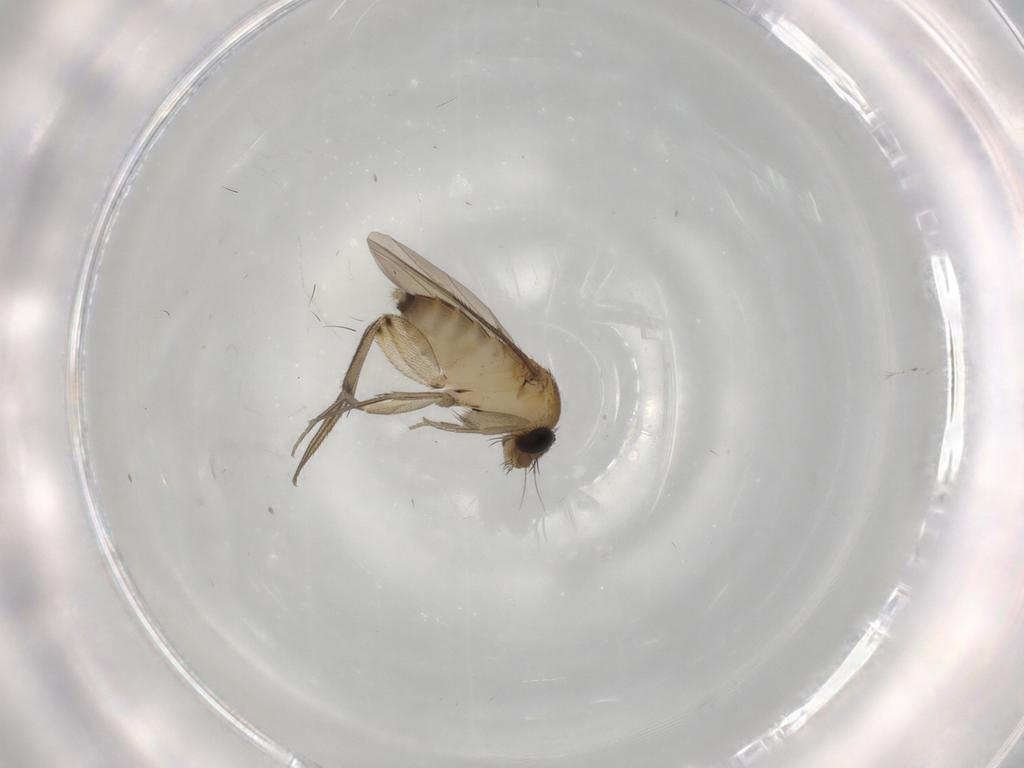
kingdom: Animalia
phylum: Arthropoda
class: Insecta
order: Diptera
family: Phoridae
